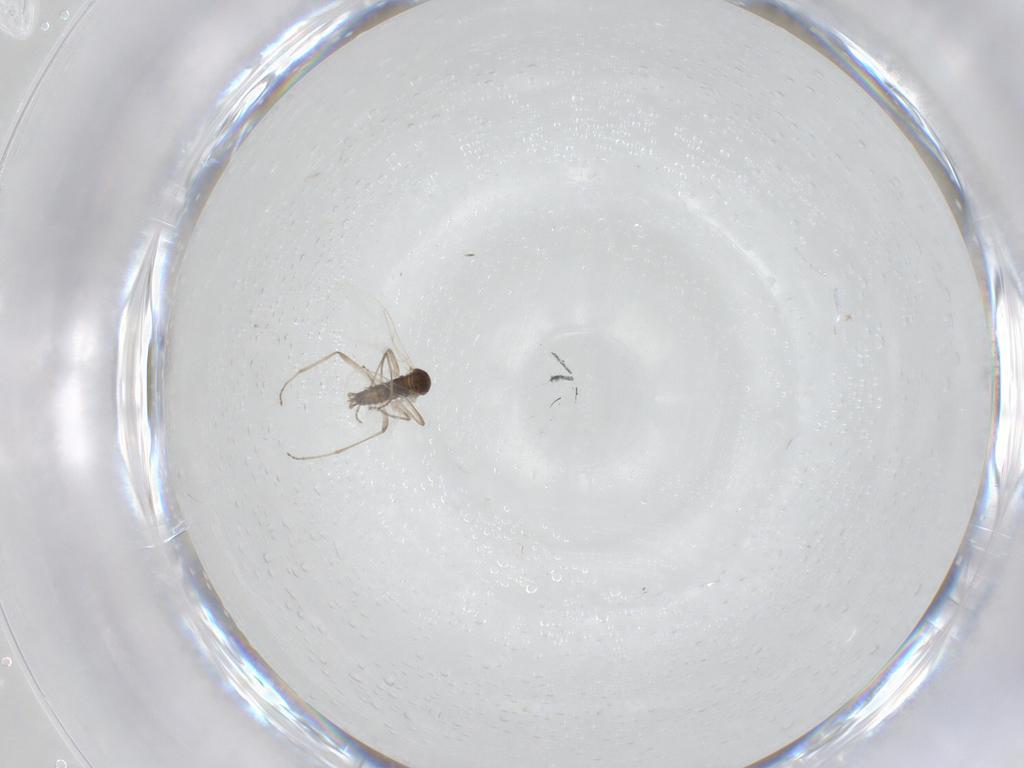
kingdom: Animalia
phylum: Arthropoda
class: Insecta
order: Diptera
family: Cecidomyiidae
